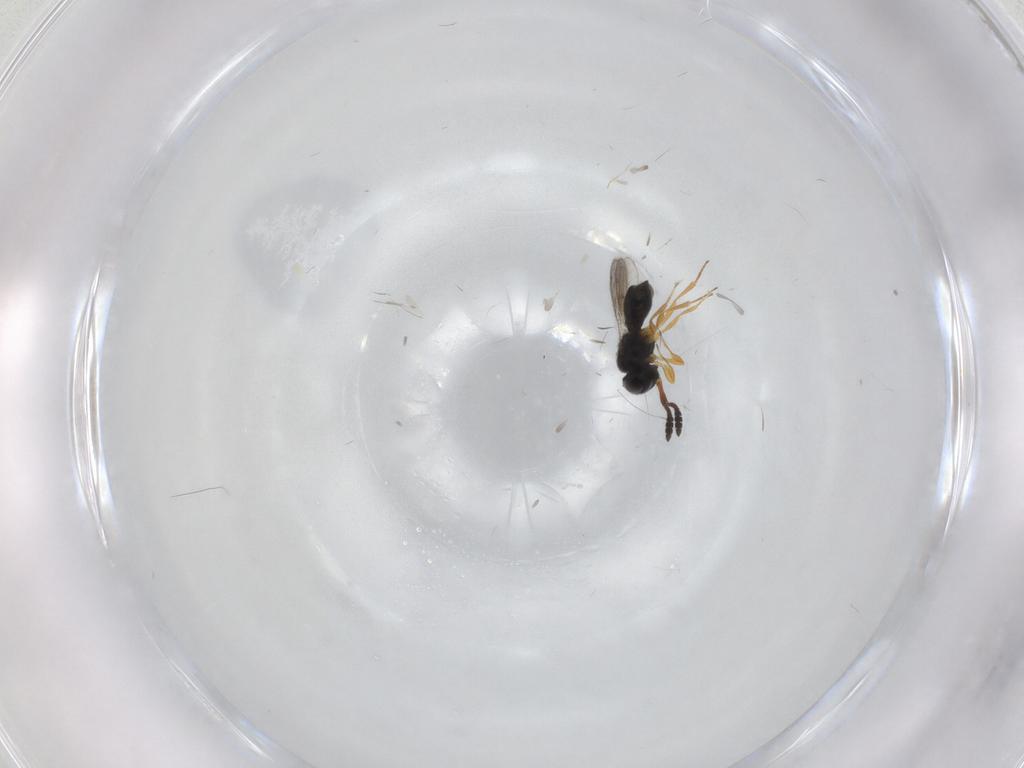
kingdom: Animalia
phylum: Arthropoda
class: Insecta
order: Hymenoptera
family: Scelionidae
